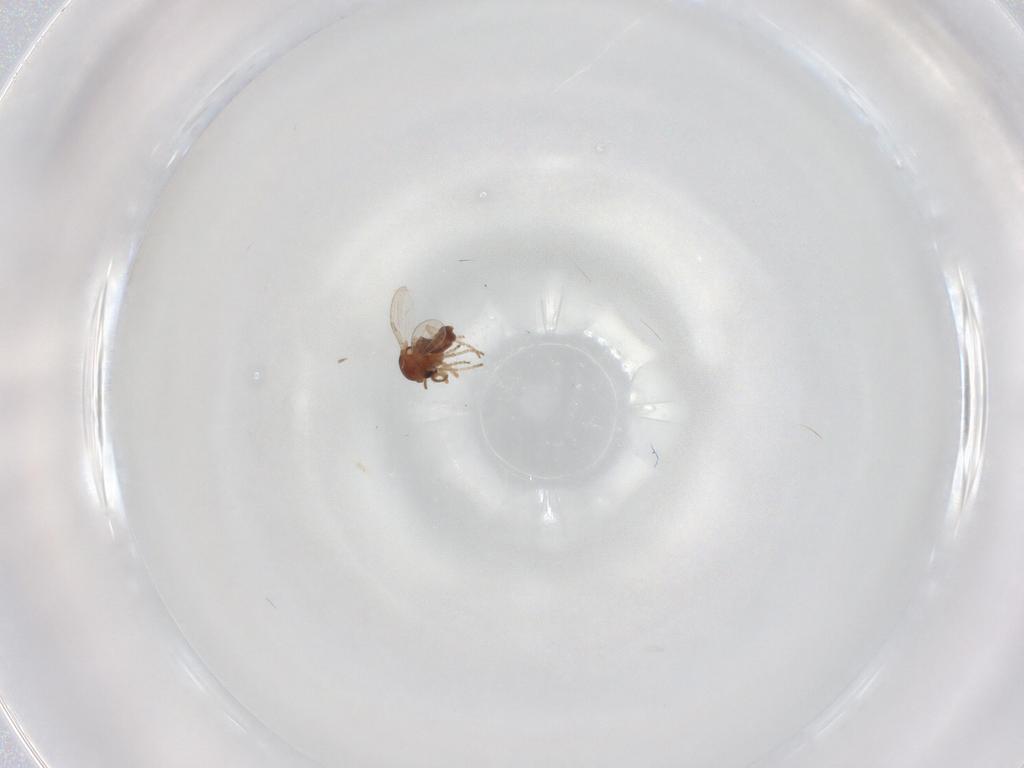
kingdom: Animalia
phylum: Arthropoda
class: Insecta
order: Diptera
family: Ceratopogonidae
